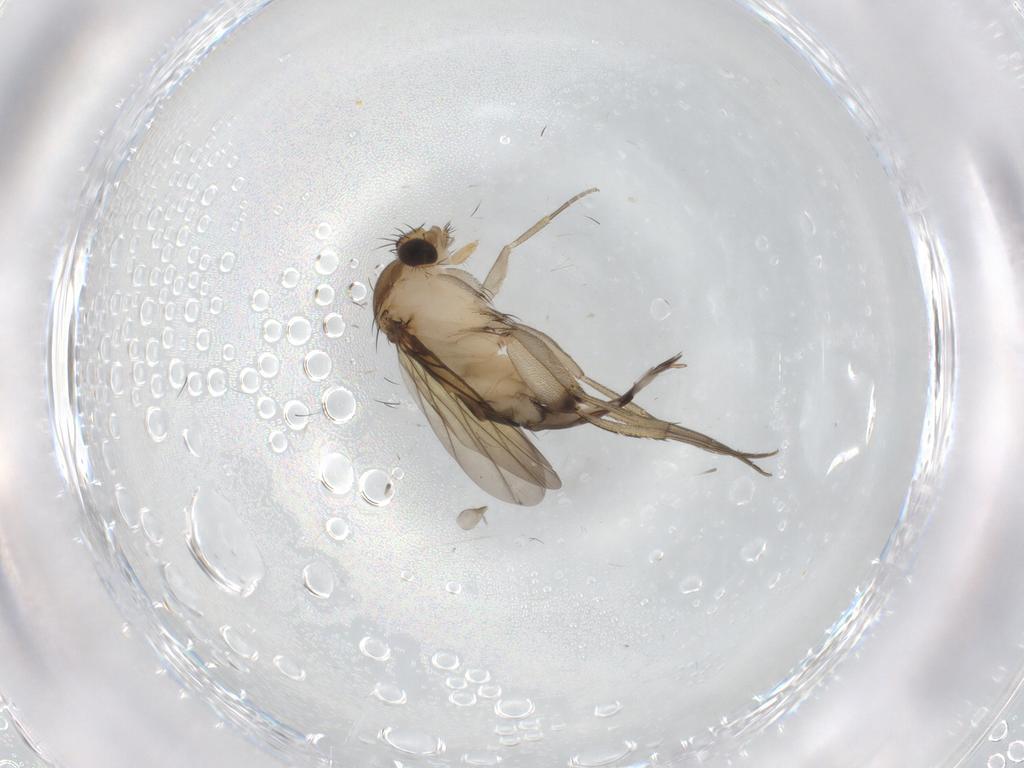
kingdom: Animalia
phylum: Arthropoda
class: Insecta
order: Diptera
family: Phoridae
